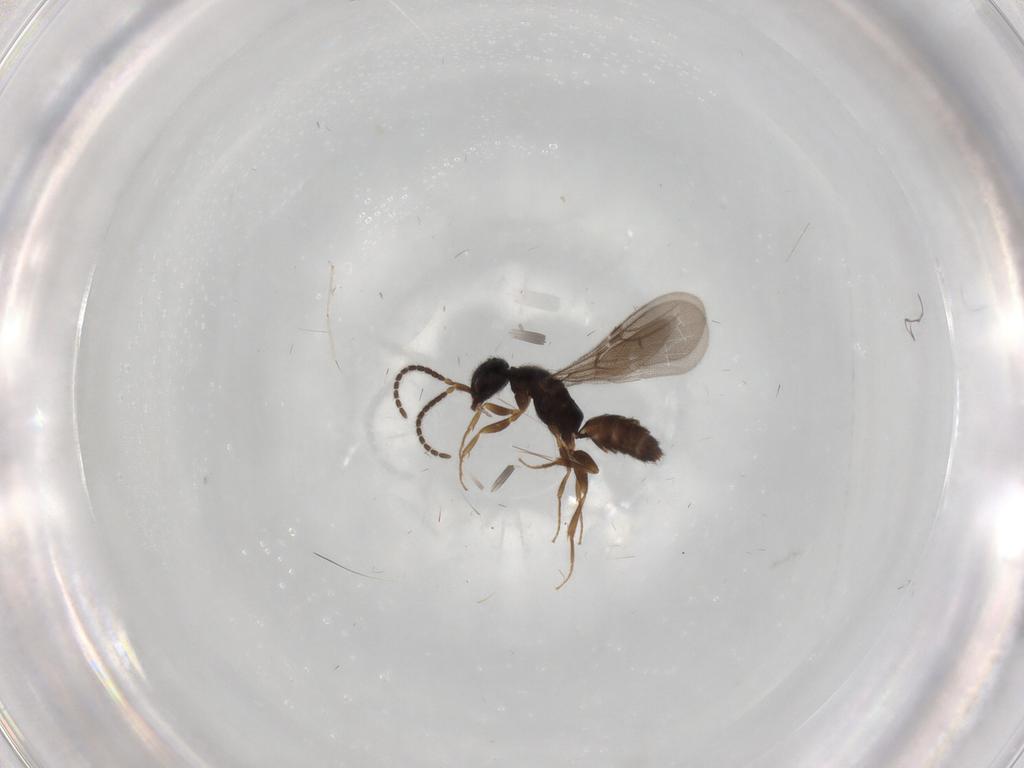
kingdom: Animalia
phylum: Arthropoda
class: Insecta
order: Hymenoptera
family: Bethylidae
